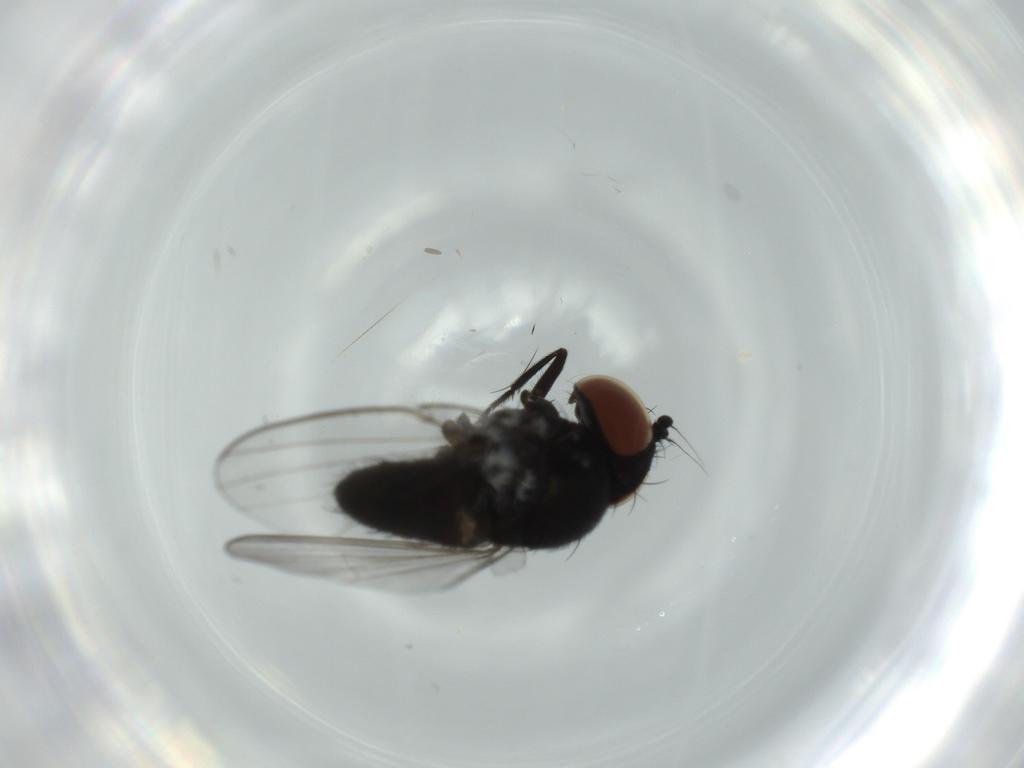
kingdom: Animalia
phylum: Arthropoda
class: Insecta
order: Diptera
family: Milichiidae
